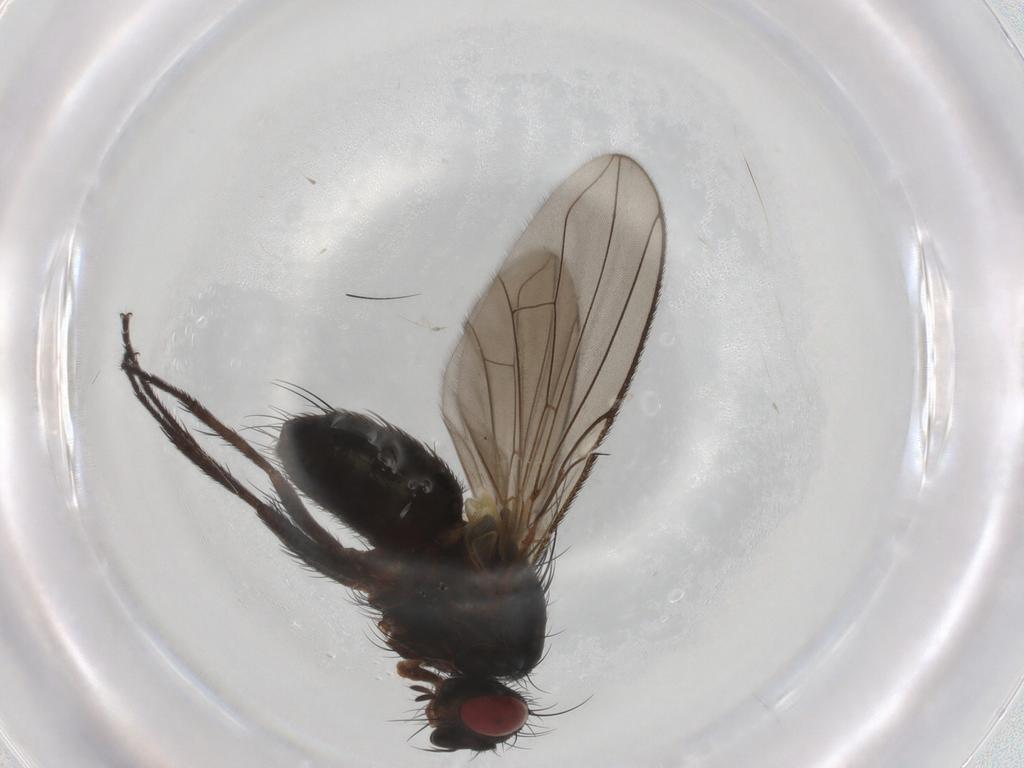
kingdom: Animalia
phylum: Arthropoda
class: Insecta
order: Diptera
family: Tachinidae
